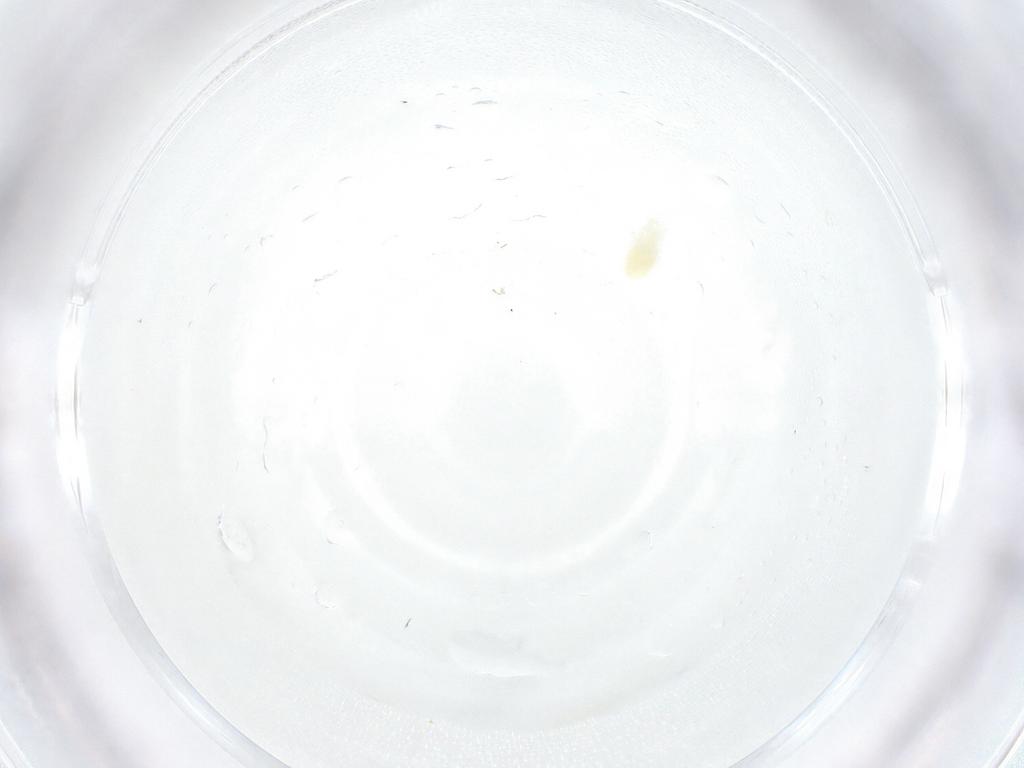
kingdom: Animalia
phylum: Arthropoda
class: Arachnida
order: Trombidiformes
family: Stigmaeidae
